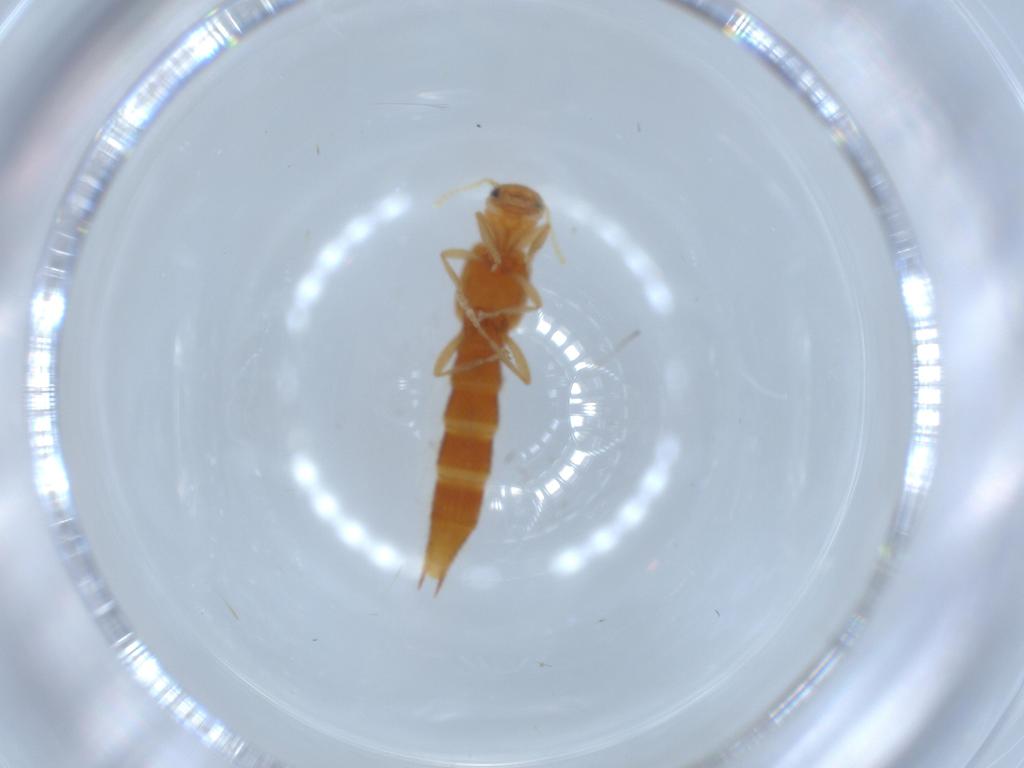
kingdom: Animalia
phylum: Arthropoda
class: Insecta
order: Coleoptera
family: Staphylinidae
